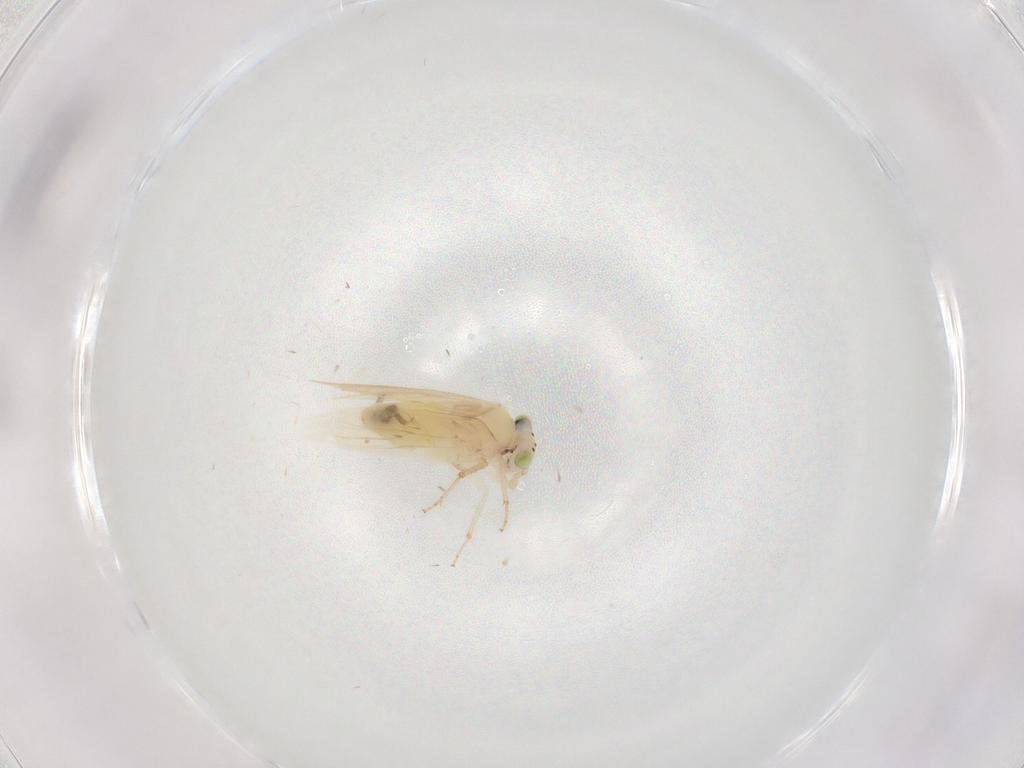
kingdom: Animalia
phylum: Arthropoda
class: Insecta
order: Psocodea
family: Lepidopsocidae
